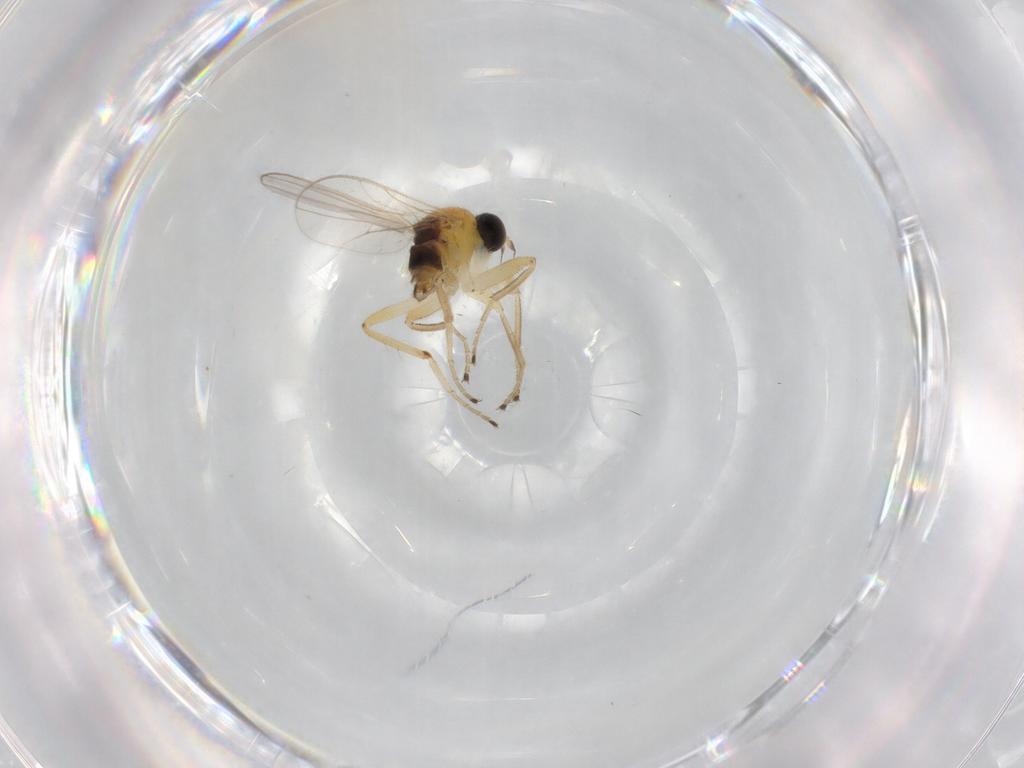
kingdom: Animalia
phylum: Arthropoda
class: Insecta
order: Diptera
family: Hybotidae
